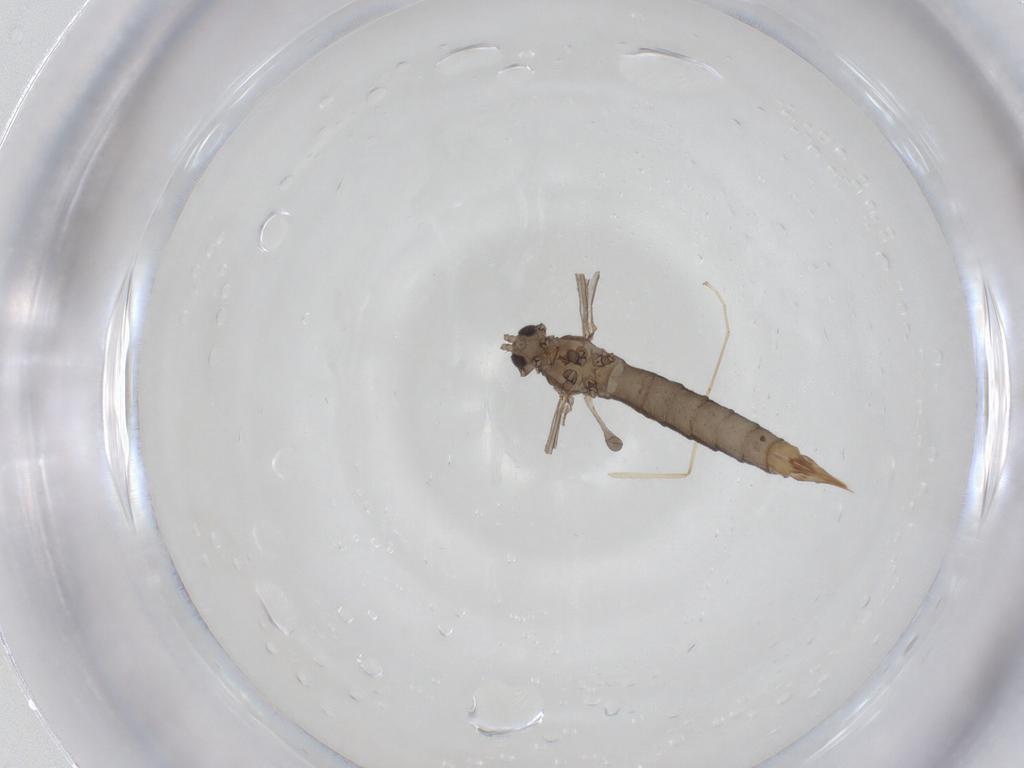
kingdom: Animalia
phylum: Arthropoda
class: Insecta
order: Diptera
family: Limoniidae
